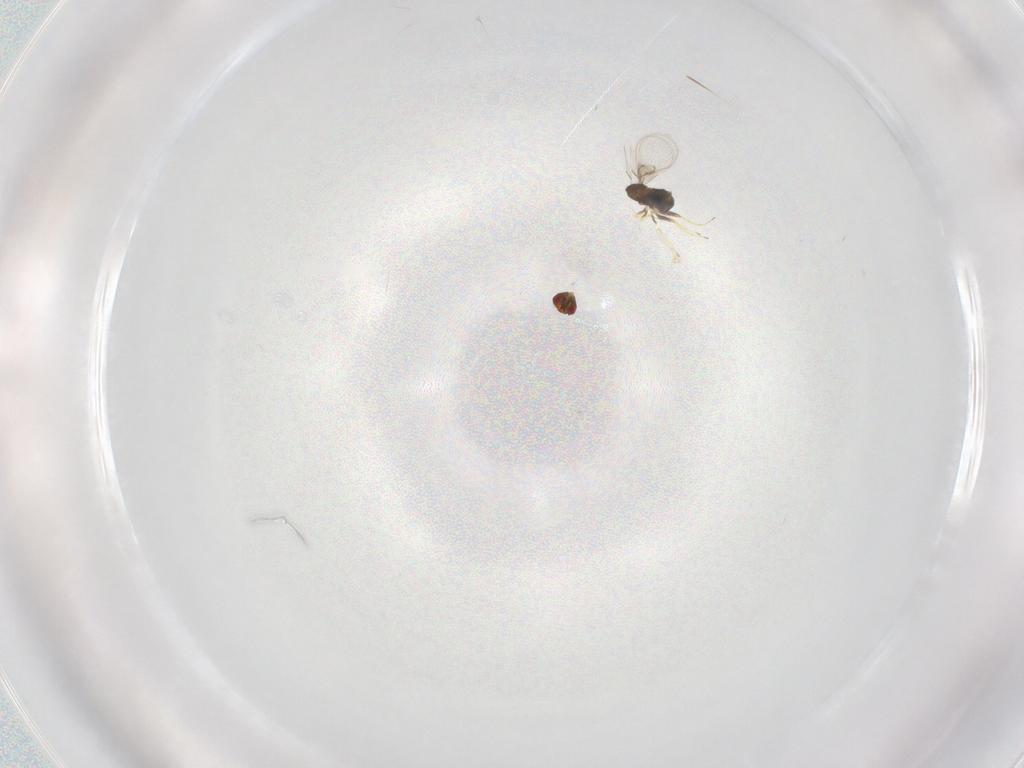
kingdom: Animalia
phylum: Arthropoda
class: Insecta
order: Hymenoptera
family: Trichogrammatidae
